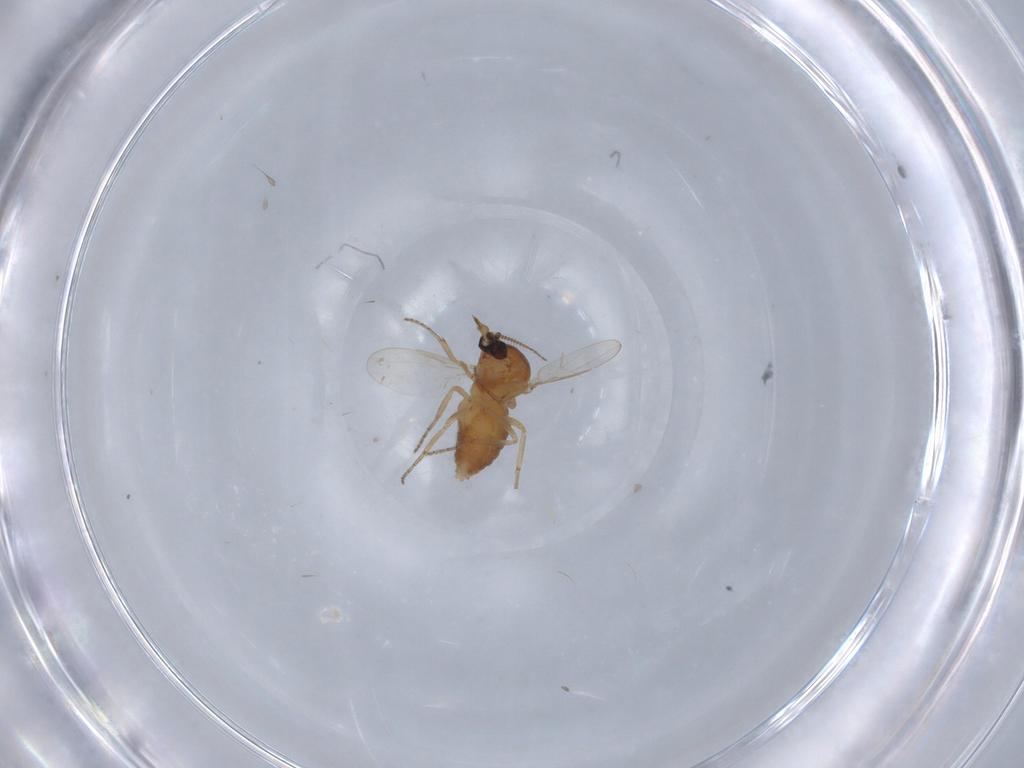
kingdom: Animalia
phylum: Arthropoda
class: Insecta
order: Diptera
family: Ceratopogonidae
